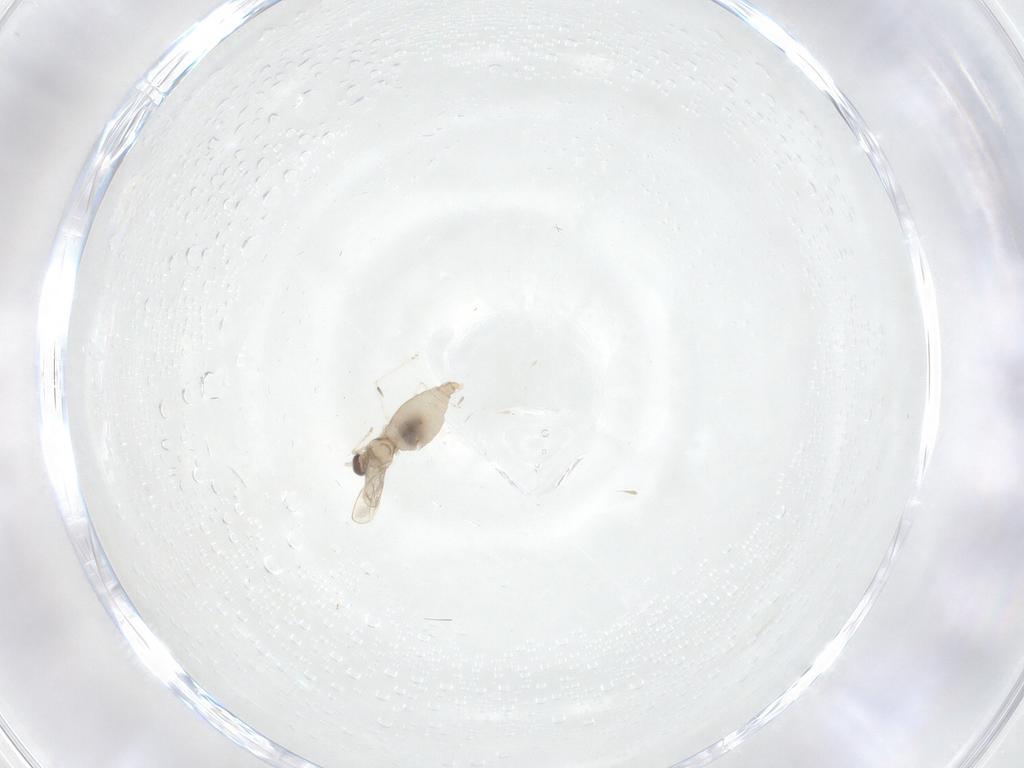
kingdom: Animalia
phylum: Arthropoda
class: Insecta
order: Diptera
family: Cecidomyiidae
